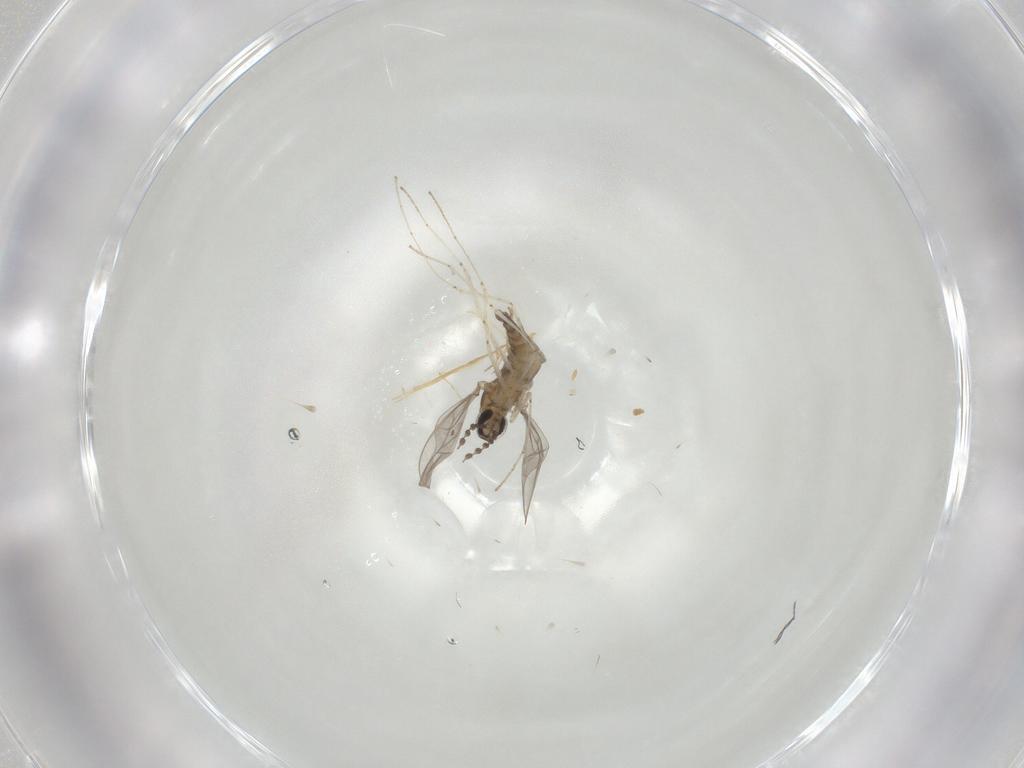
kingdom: Animalia
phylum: Arthropoda
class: Insecta
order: Diptera
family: Cecidomyiidae
